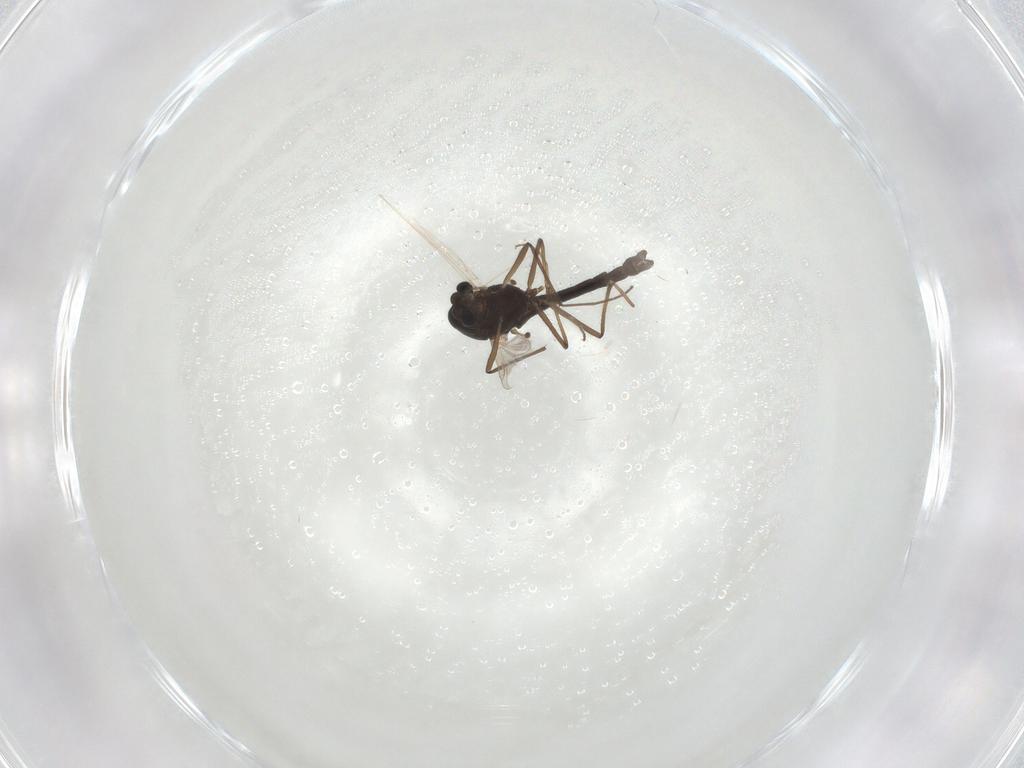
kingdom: Animalia
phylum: Arthropoda
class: Insecta
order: Diptera
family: Chironomidae
